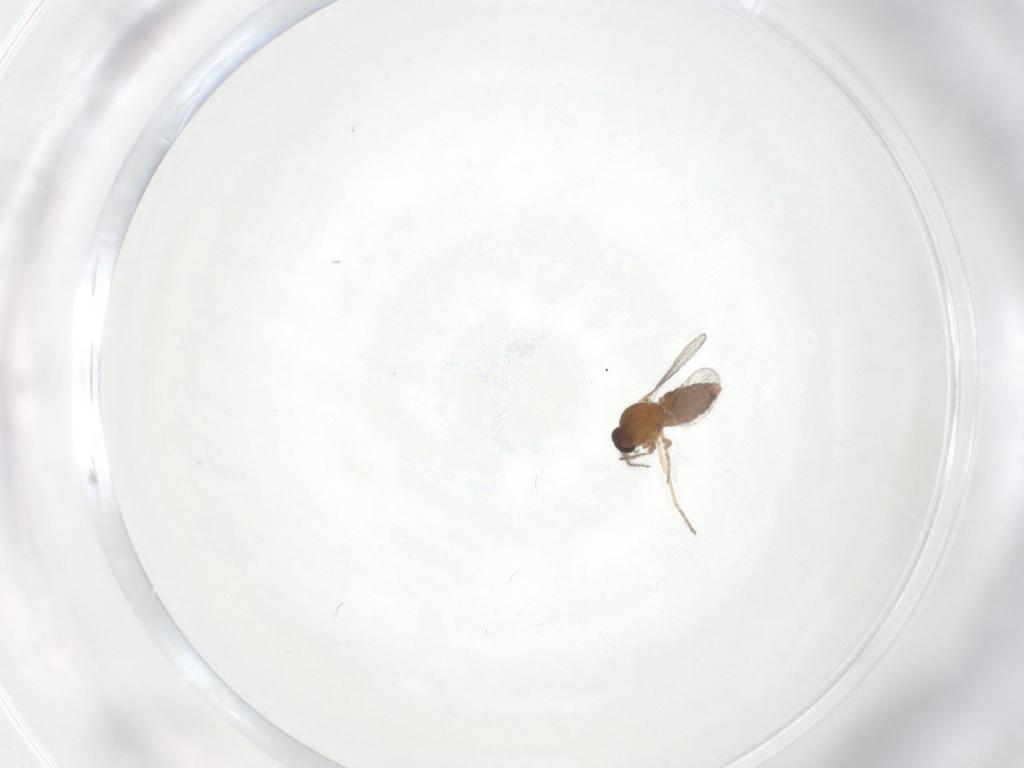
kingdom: Animalia
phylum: Arthropoda
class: Insecta
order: Diptera
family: Ceratopogonidae
